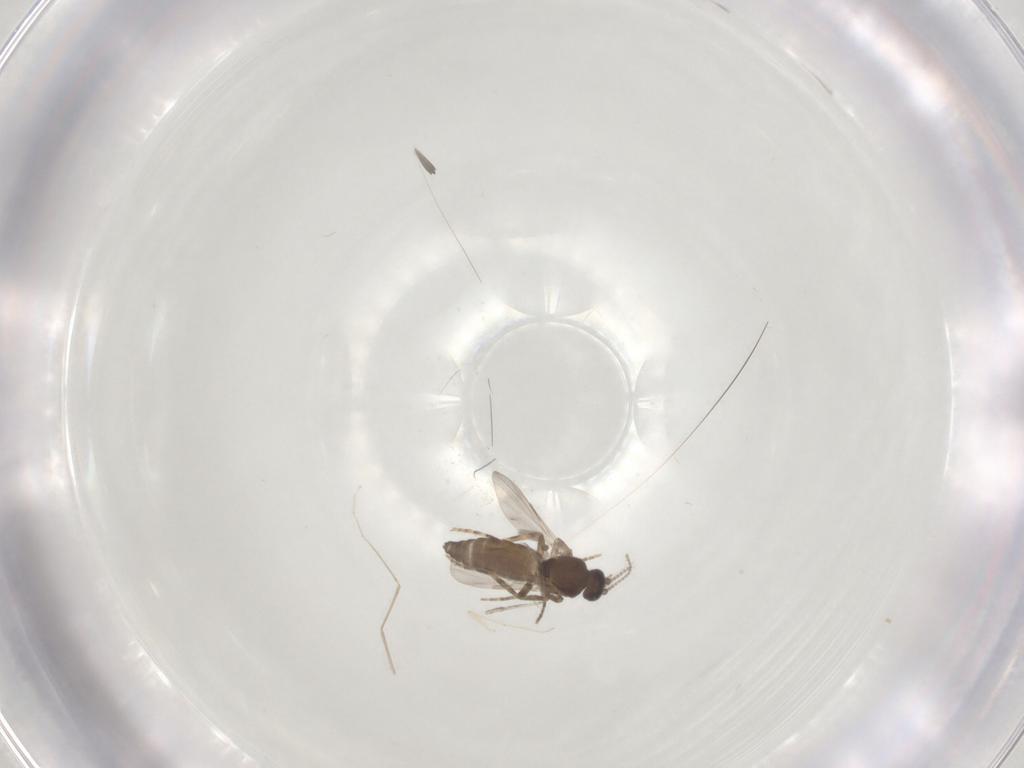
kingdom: Animalia
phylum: Arthropoda
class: Insecta
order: Diptera
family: Ceratopogonidae
